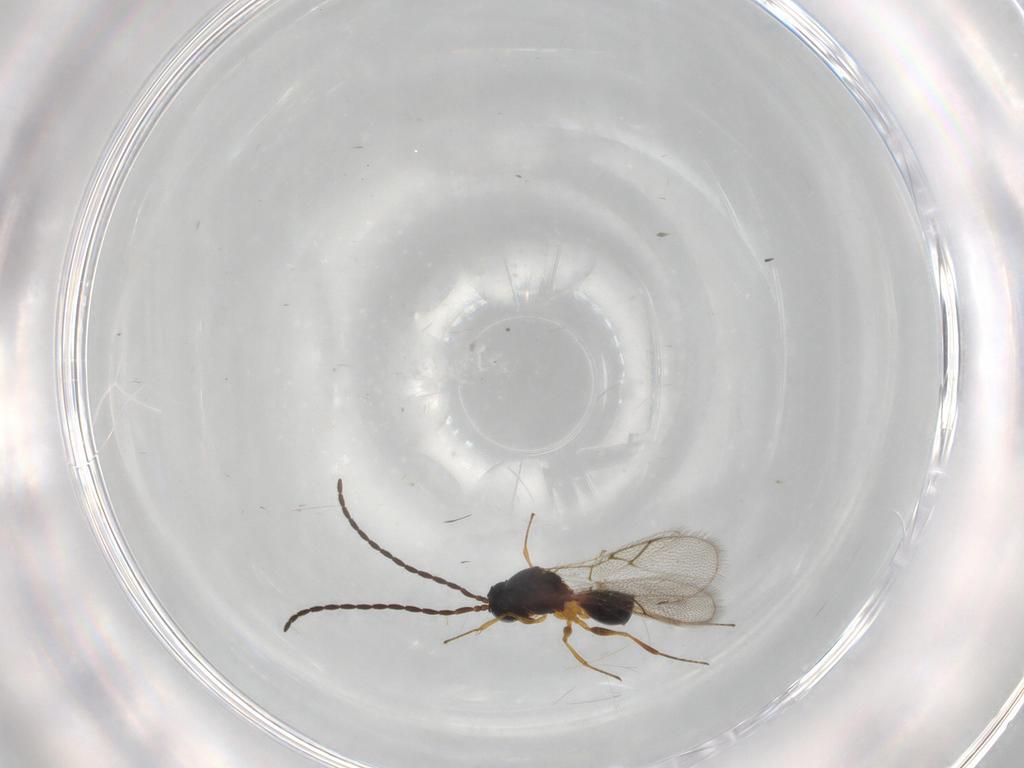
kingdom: Animalia
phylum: Arthropoda
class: Insecta
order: Hymenoptera
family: Figitidae
